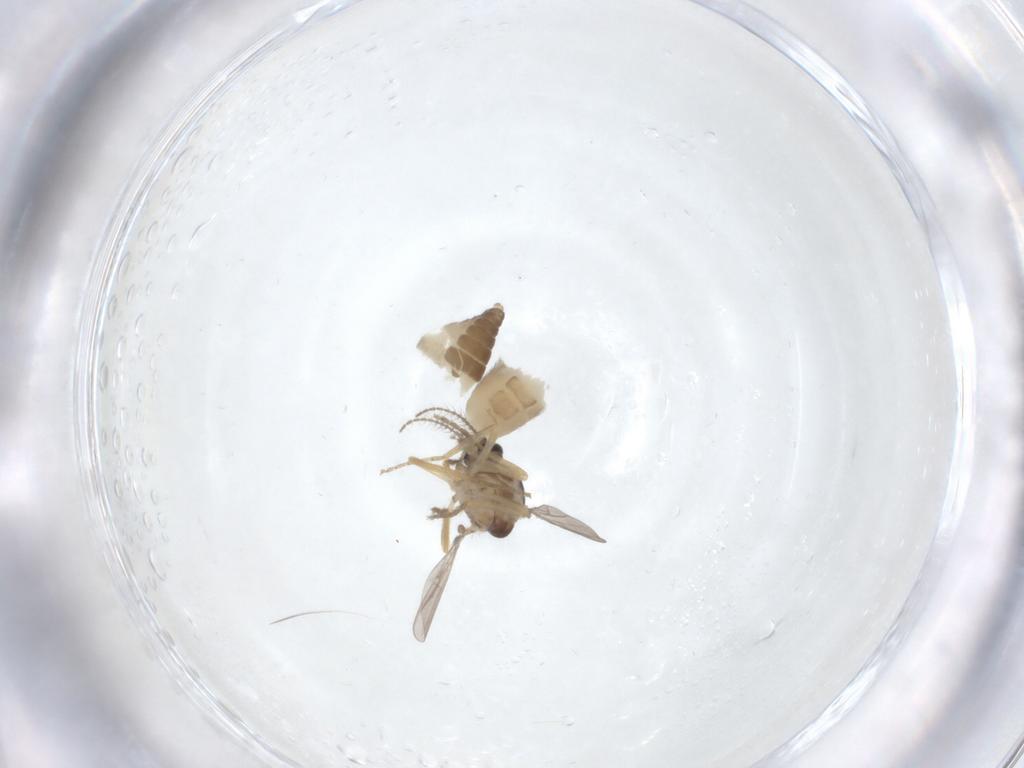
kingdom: Animalia
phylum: Arthropoda
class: Insecta
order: Diptera
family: Ceratopogonidae
